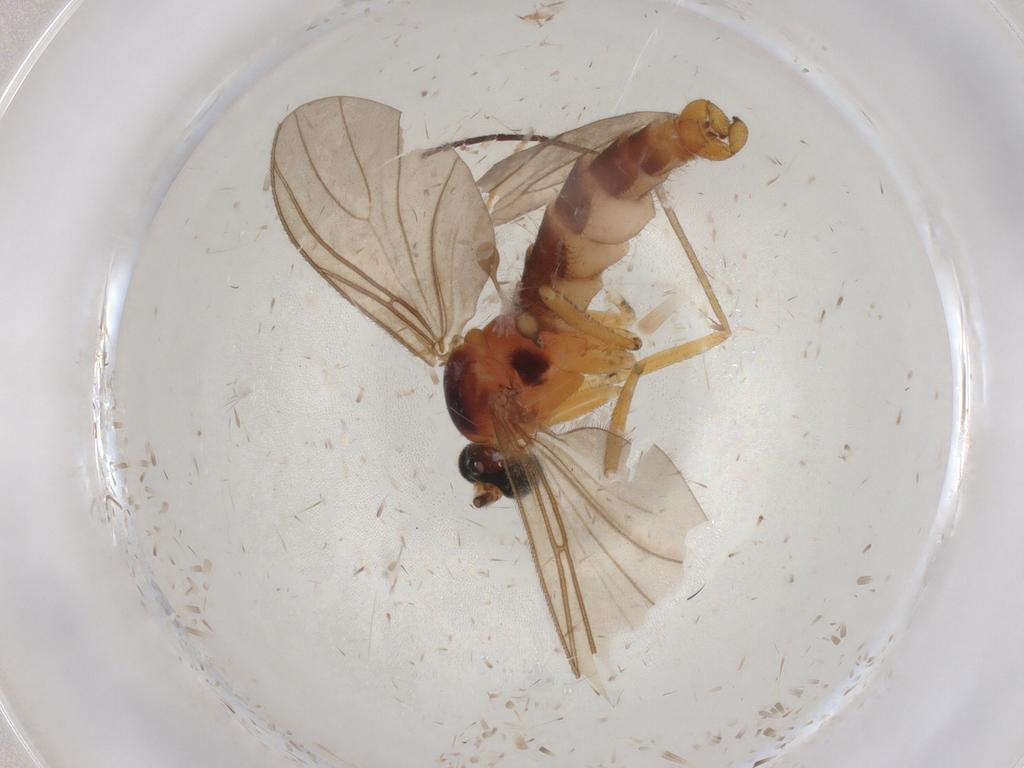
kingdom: Animalia
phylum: Arthropoda
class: Insecta
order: Diptera
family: Sciaridae
